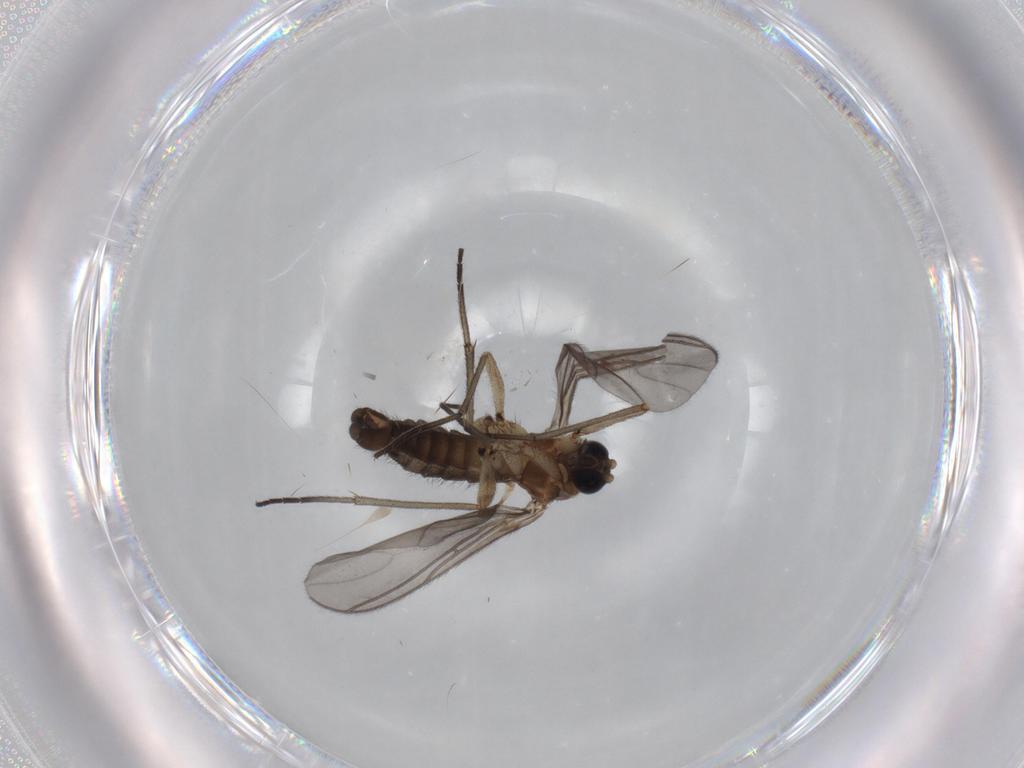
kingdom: Animalia
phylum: Arthropoda
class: Insecta
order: Diptera
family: Sciaridae
